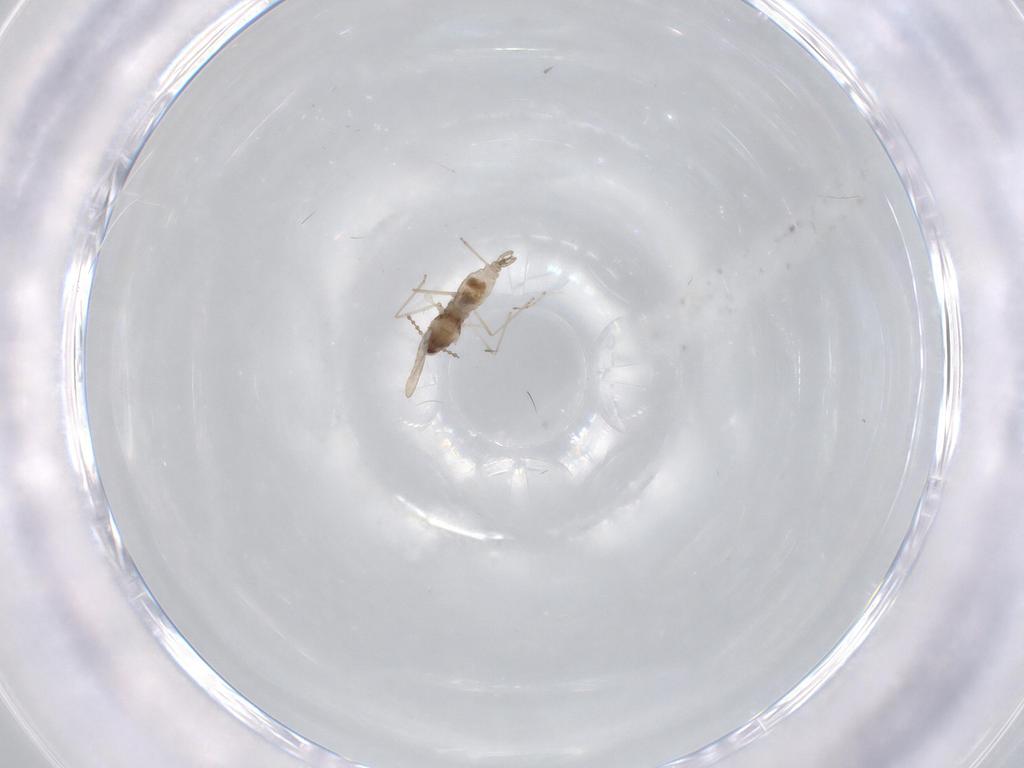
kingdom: Animalia
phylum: Arthropoda
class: Insecta
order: Diptera
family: Cecidomyiidae
